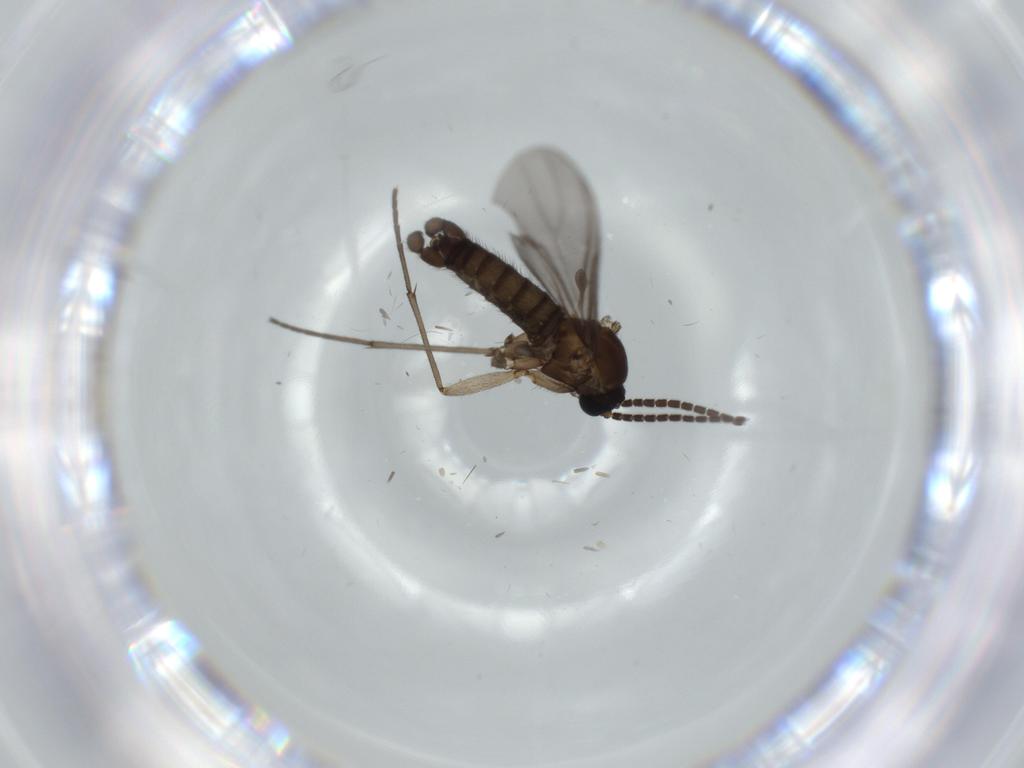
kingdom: Animalia
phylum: Arthropoda
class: Insecta
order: Diptera
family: Sciaridae
